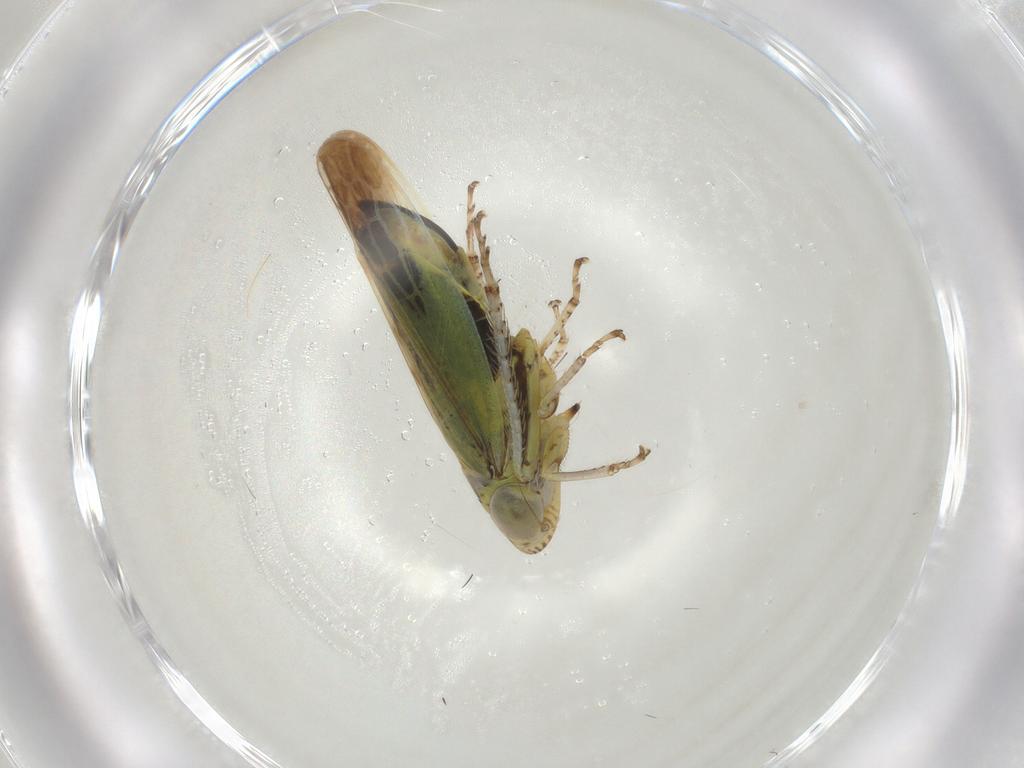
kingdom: Animalia
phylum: Arthropoda
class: Insecta
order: Hemiptera
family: Cicadellidae
